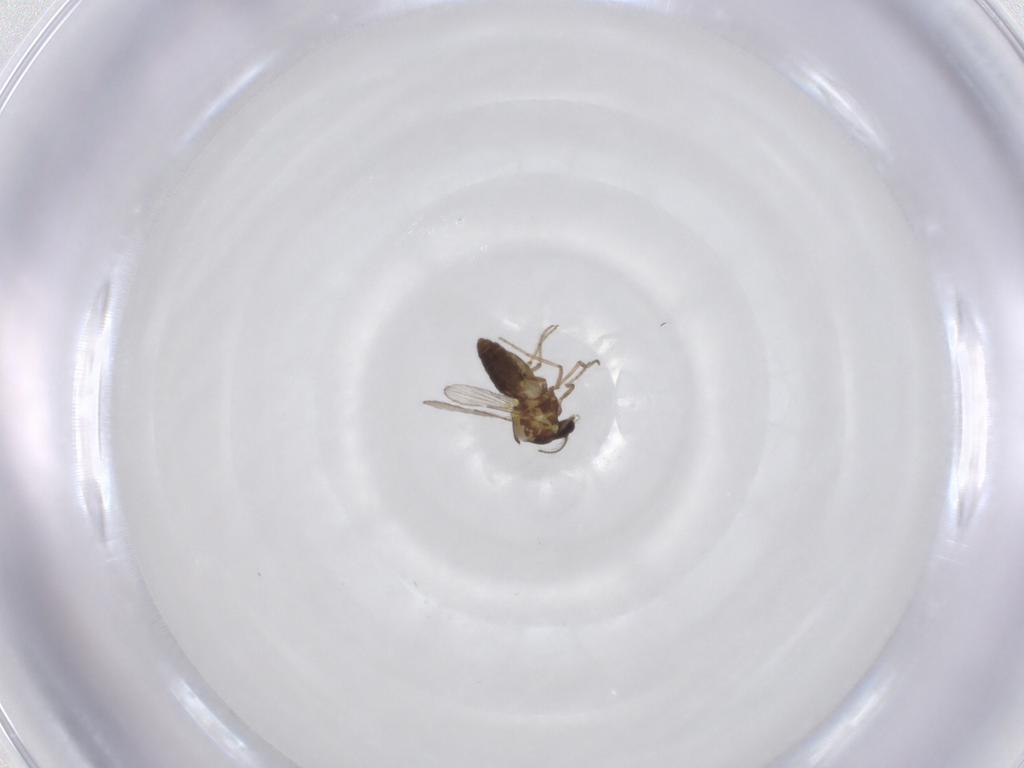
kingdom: Animalia
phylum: Arthropoda
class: Insecta
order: Diptera
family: Ceratopogonidae
